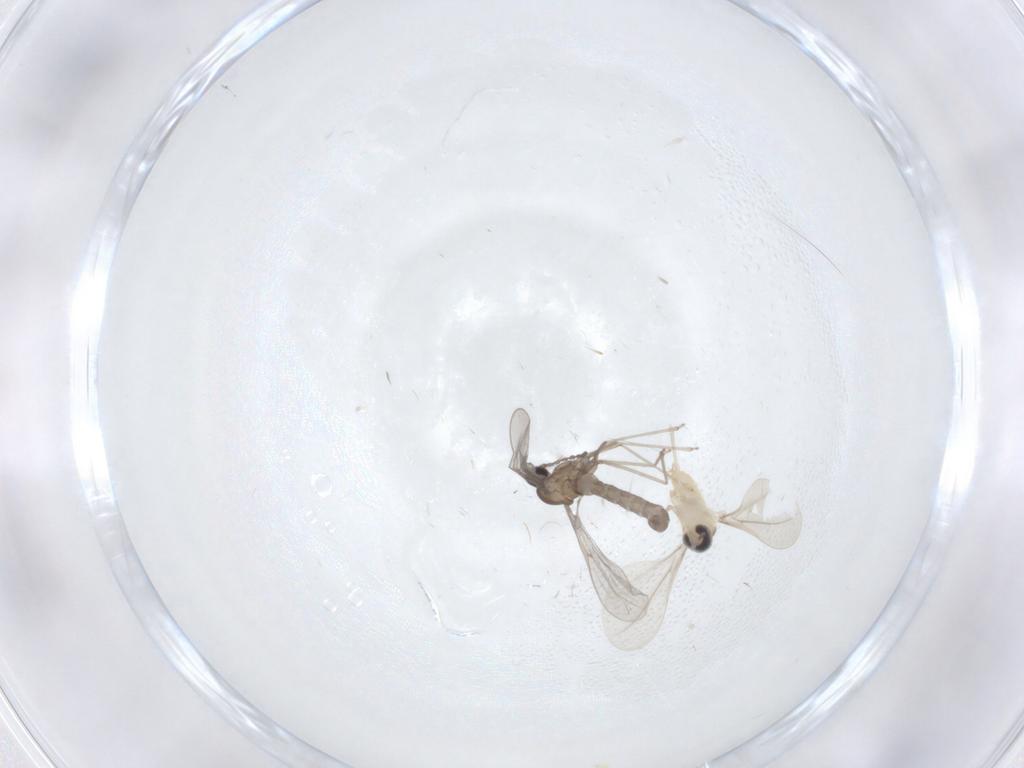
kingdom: Animalia
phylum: Arthropoda
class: Insecta
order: Diptera
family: Cecidomyiidae
